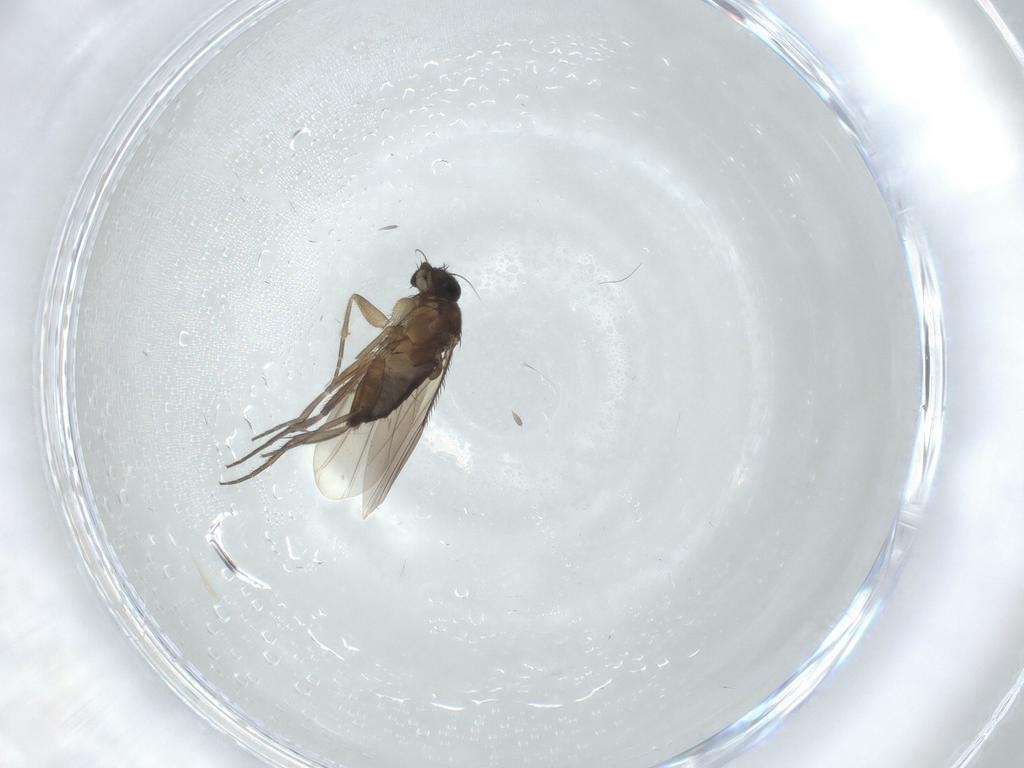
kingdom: Animalia
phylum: Arthropoda
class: Insecta
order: Diptera
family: Phoridae
